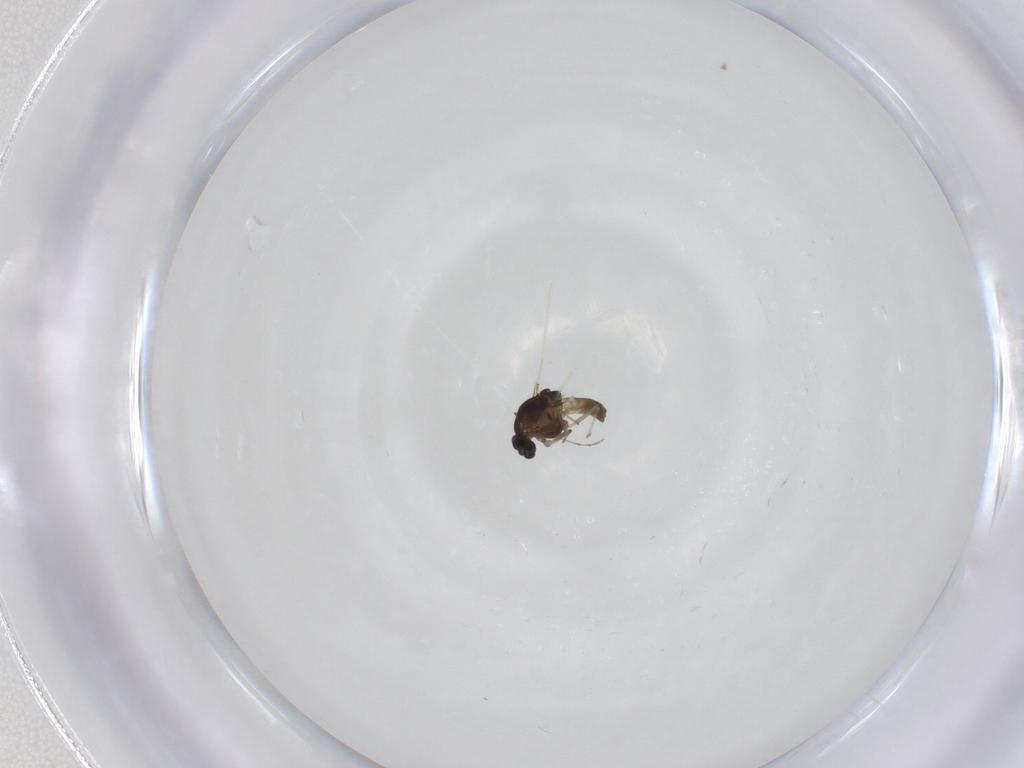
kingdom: Animalia
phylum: Arthropoda
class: Insecta
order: Diptera
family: Chironomidae
